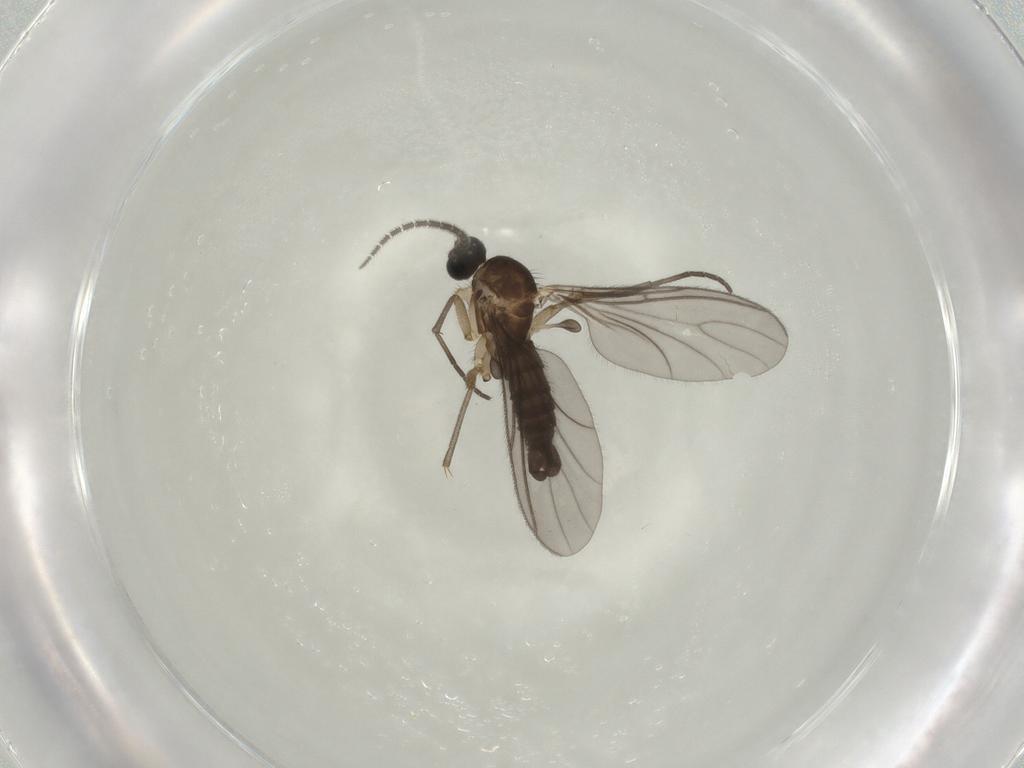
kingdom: Animalia
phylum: Arthropoda
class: Insecta
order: Diptera
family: Sciaridae
